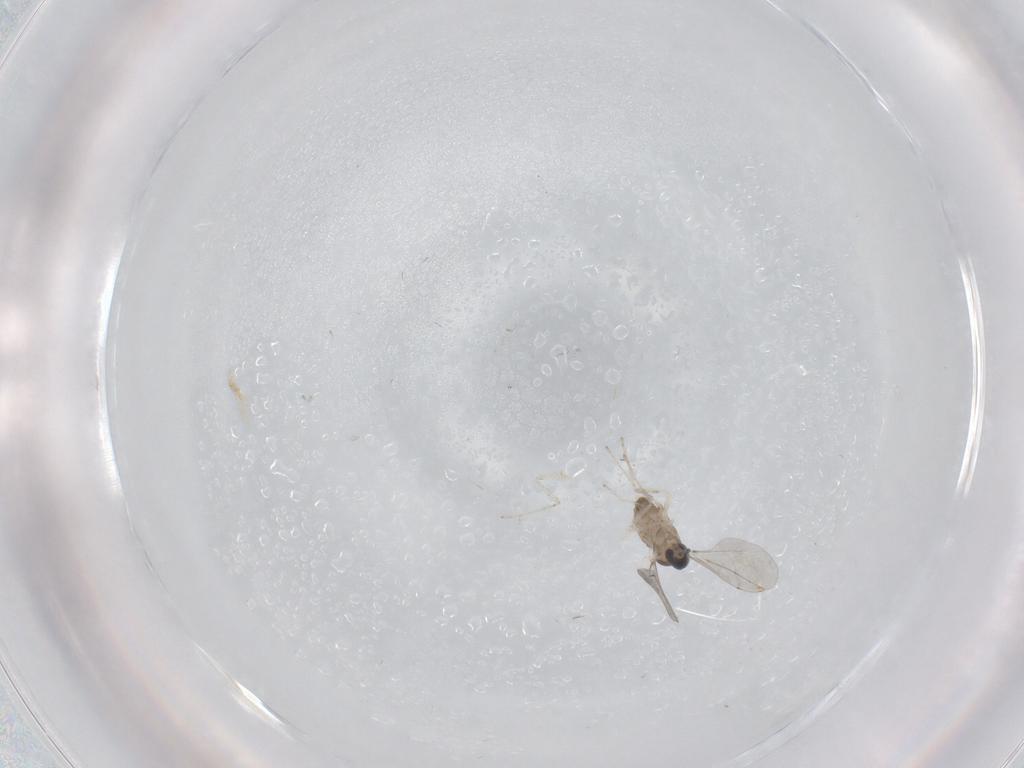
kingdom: Animalia
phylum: Arthropoda
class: Insecta
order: Diptera
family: Cecidomyiidae
